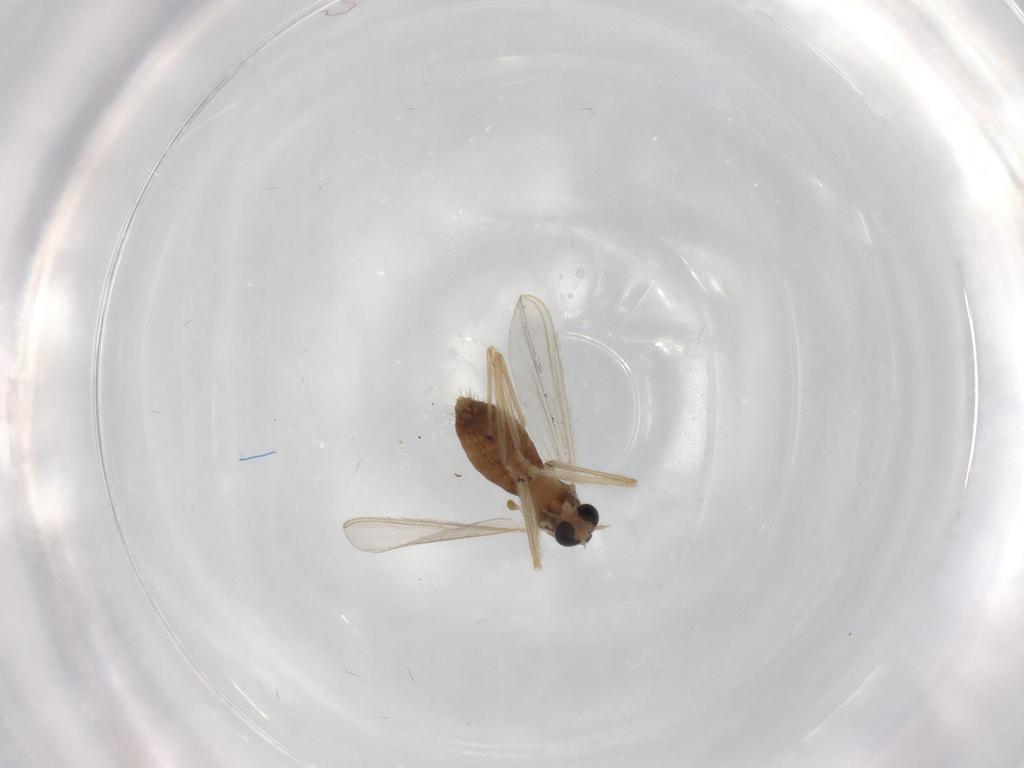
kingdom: Animalia
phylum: Arthropoda
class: Insecta
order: Diptera
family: Chironomidae
